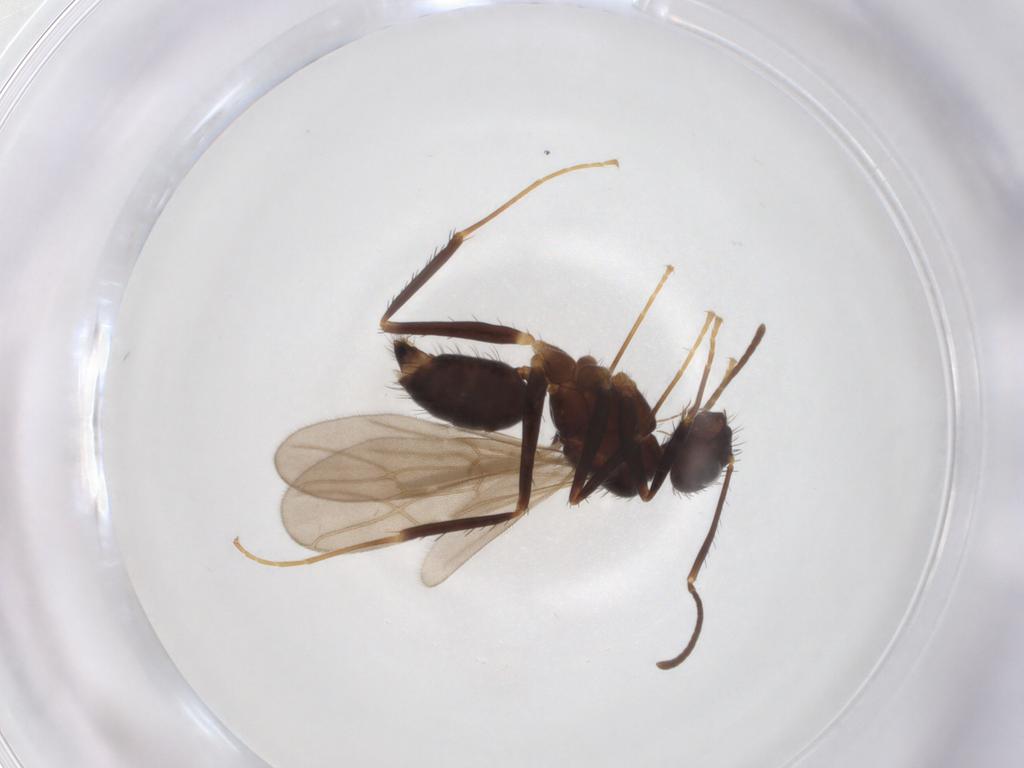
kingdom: Animalia
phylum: Arthropoda
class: Insecta
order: Hymenoptera
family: Formicidae
